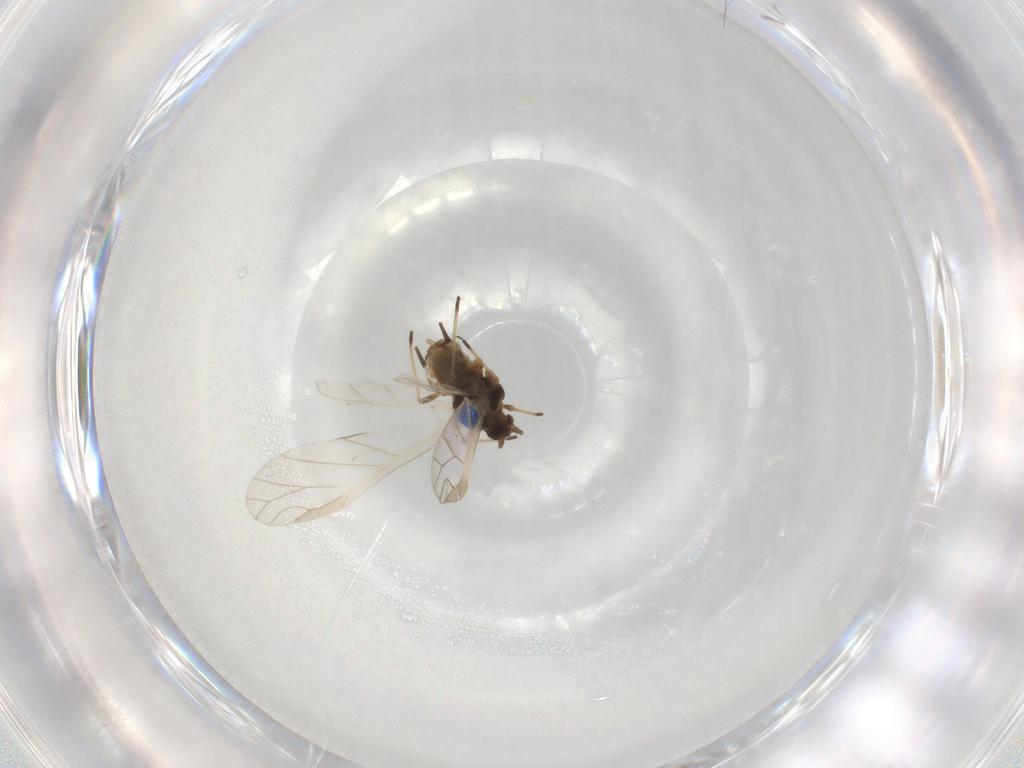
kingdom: Animalia
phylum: Arthropoda
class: Insecta
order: Hemiptera
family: Aphididae
